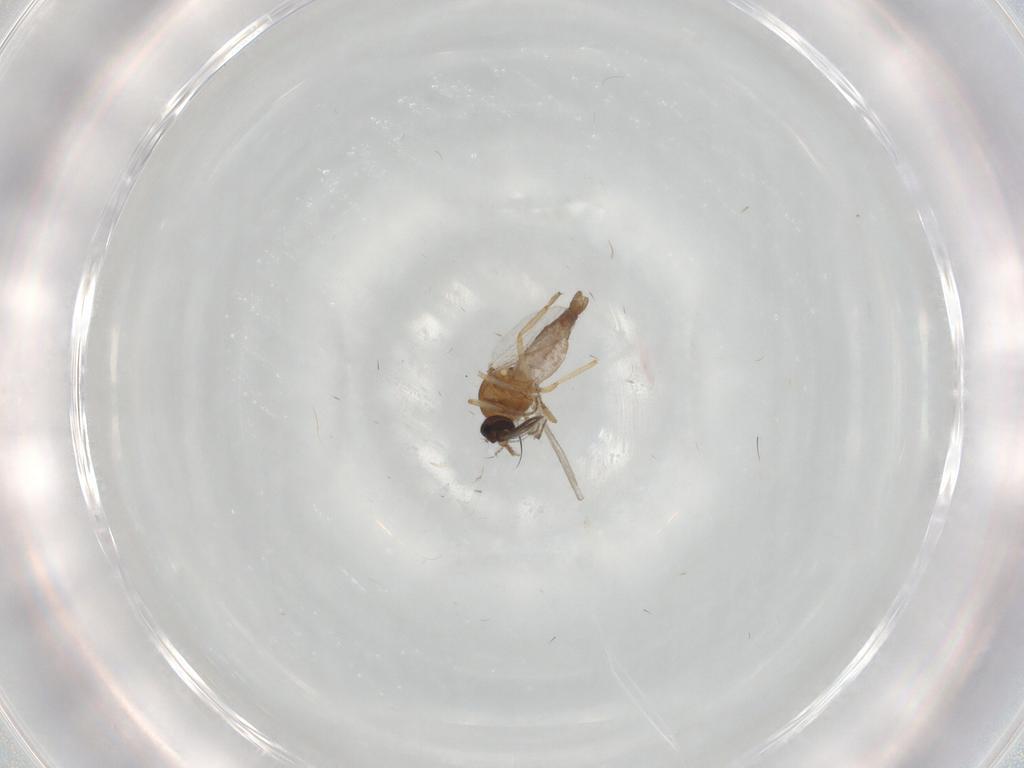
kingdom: Animalia
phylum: Arthropoda
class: Insecta
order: Diptera
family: Ceratopogonidae
